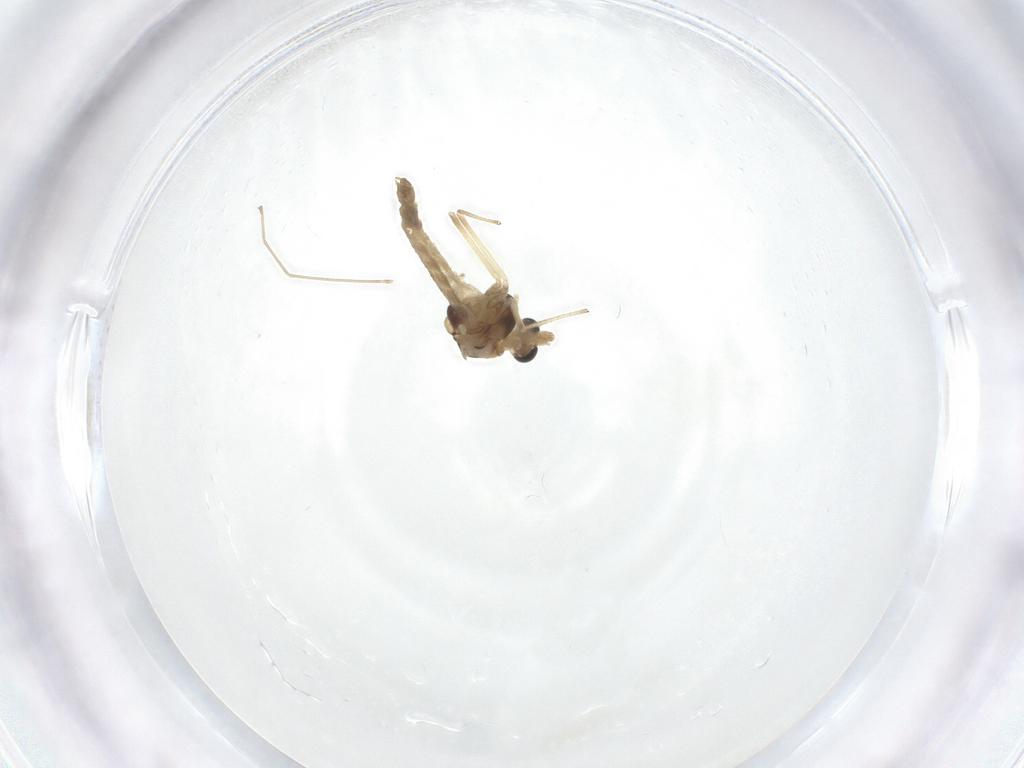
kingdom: Animalia
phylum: Arthropoda
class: Insecta
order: Diptera
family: Chironomidae
